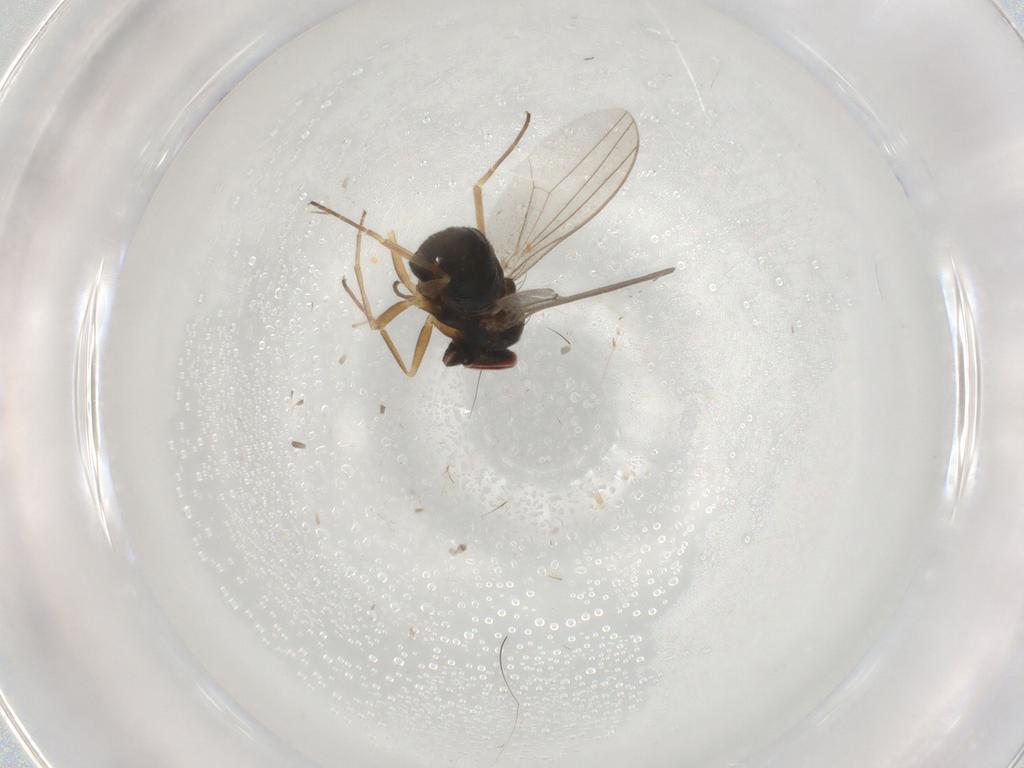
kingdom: Animalia
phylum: Arthropoda
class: Insecta
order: Diptera
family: Dolichopodidae
